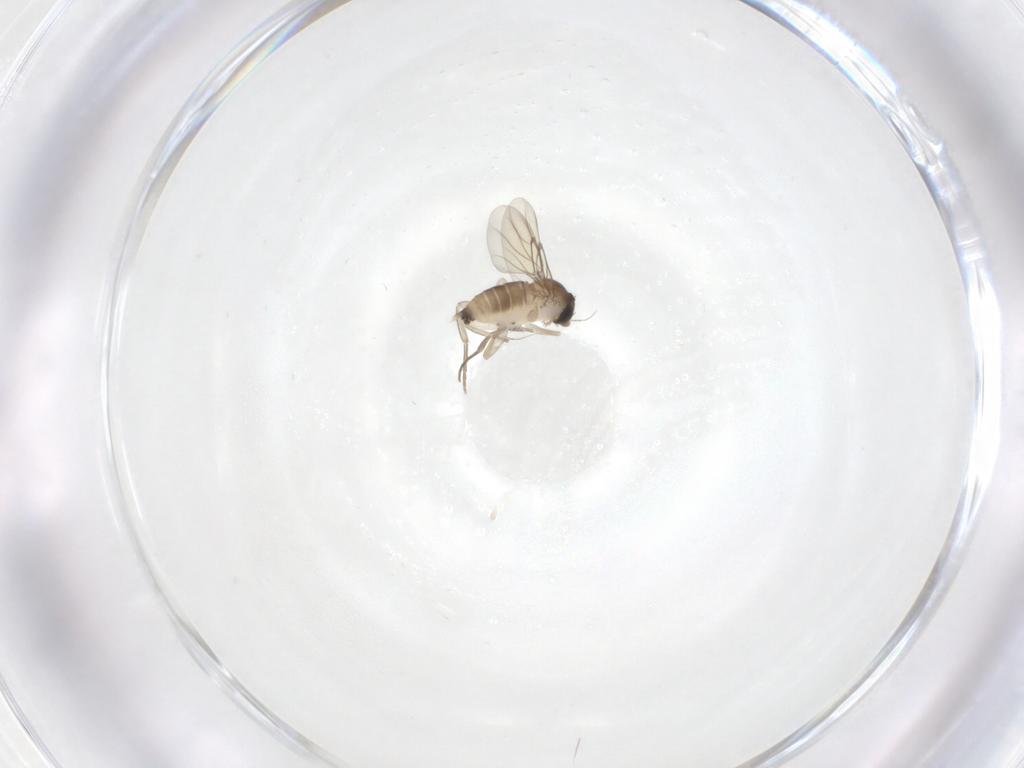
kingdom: Animalia
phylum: Arthropoda
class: Insecta
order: Diptera
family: Phoridae
